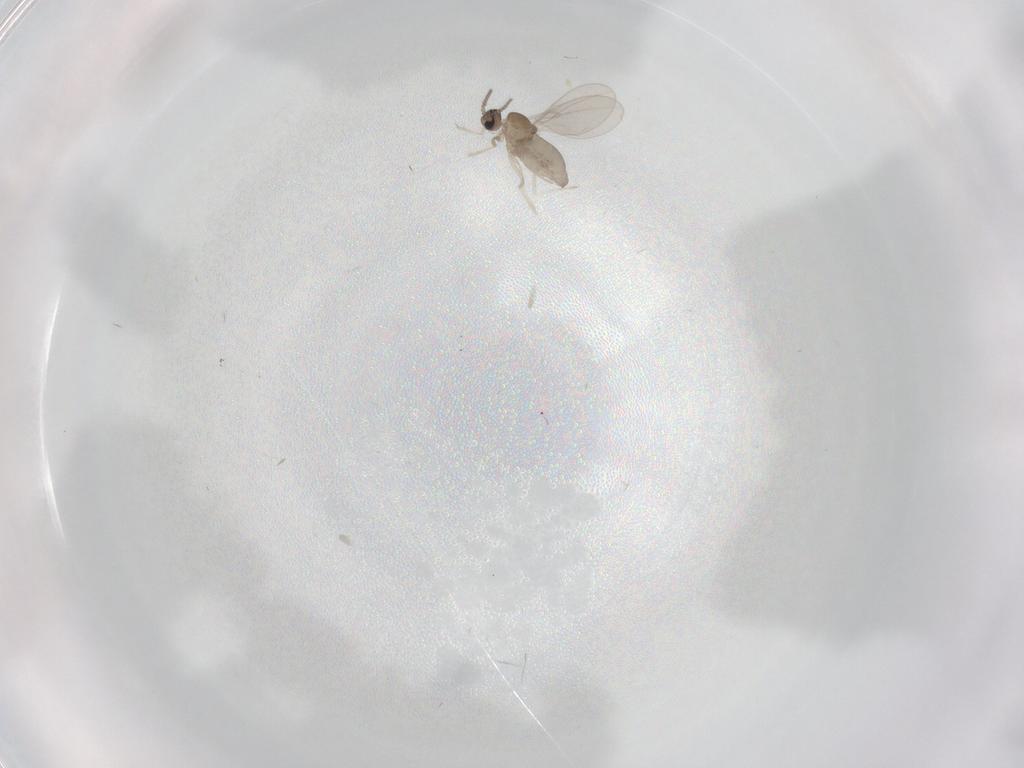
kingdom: Animalia
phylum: Arthropoda
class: Insecta
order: Diptera
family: Cecidomyiidae
